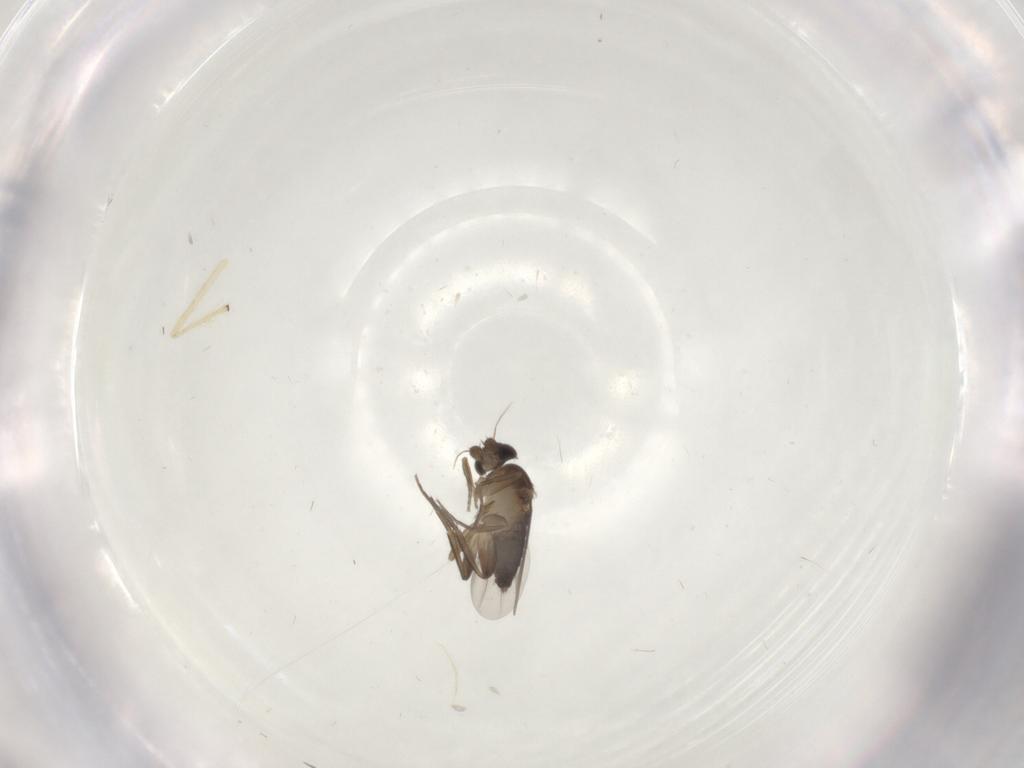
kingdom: Animalia
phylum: Arthropoda
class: Insecta
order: Diptera
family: Phoridae
